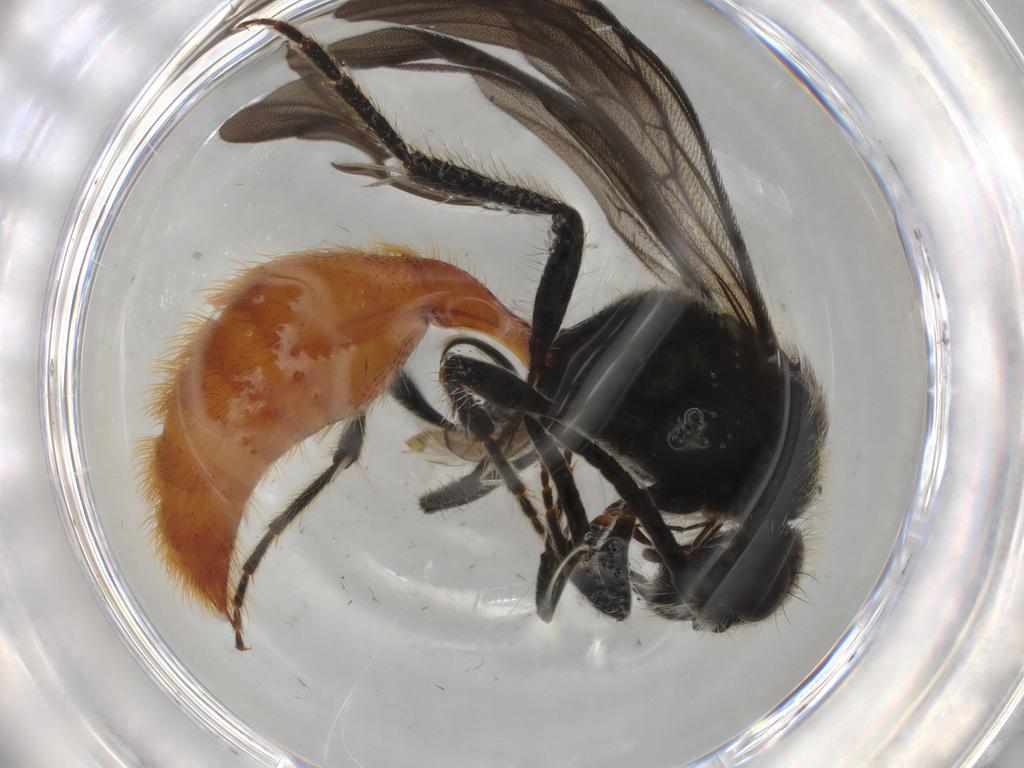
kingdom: Animalia
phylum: Arthropoda
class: Insecta
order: Hymenoptera
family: Mutillidae
